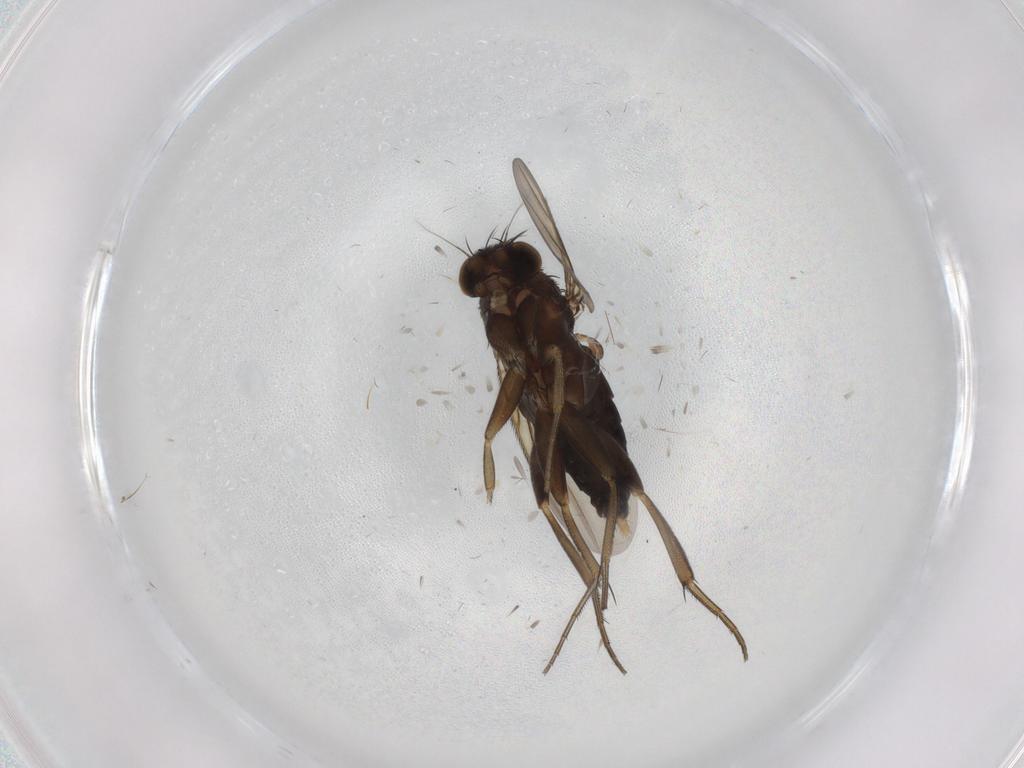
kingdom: Animalia
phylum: Arthropoda
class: Insecta
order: Diptera
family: Phoridae
